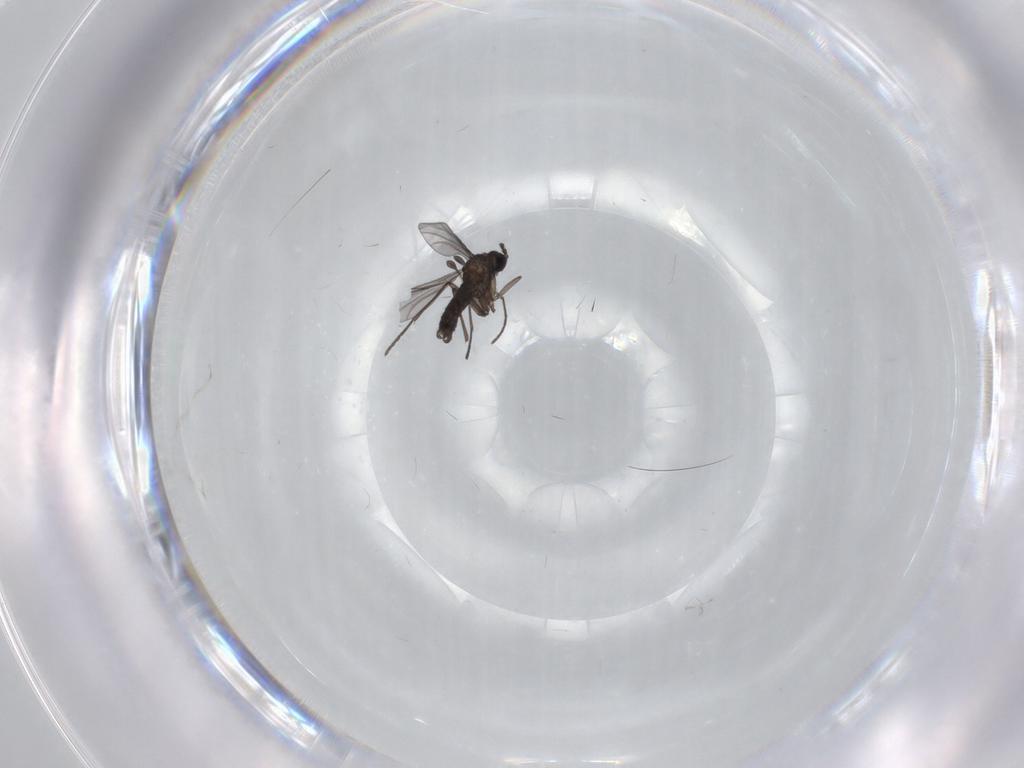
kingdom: Animalia
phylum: Arthropoda
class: Insecta
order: Diptera
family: Limoniidae
